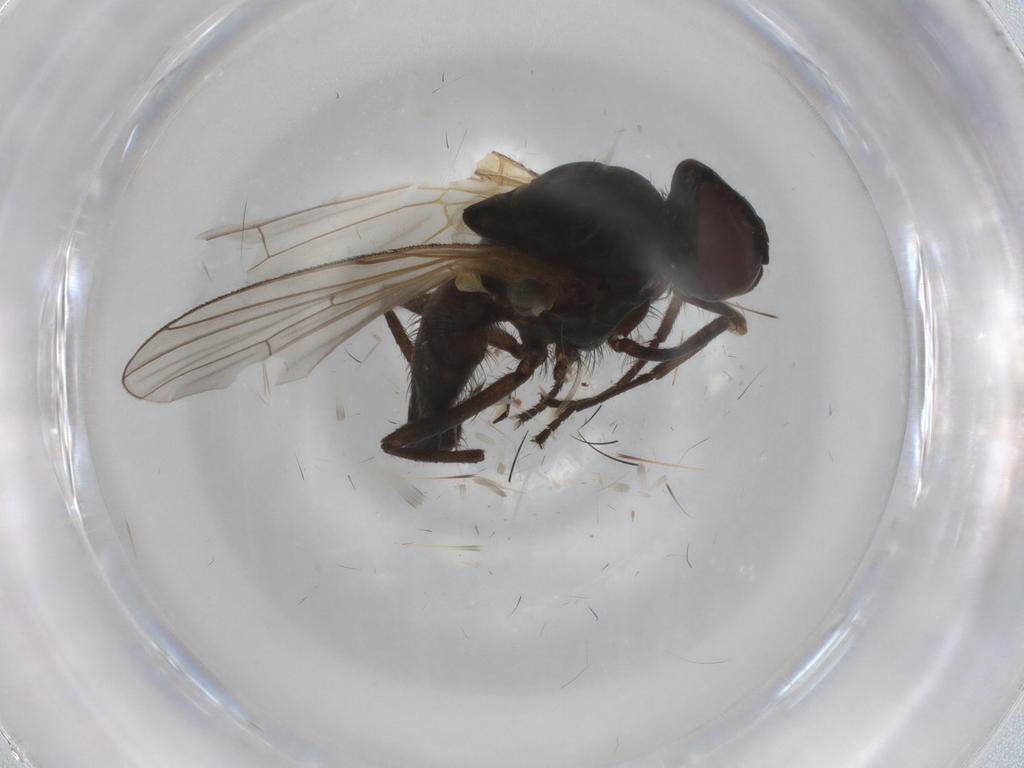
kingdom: Animalia
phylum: Arthropoda
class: Insecta
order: Diptera
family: Anthomyiidae
